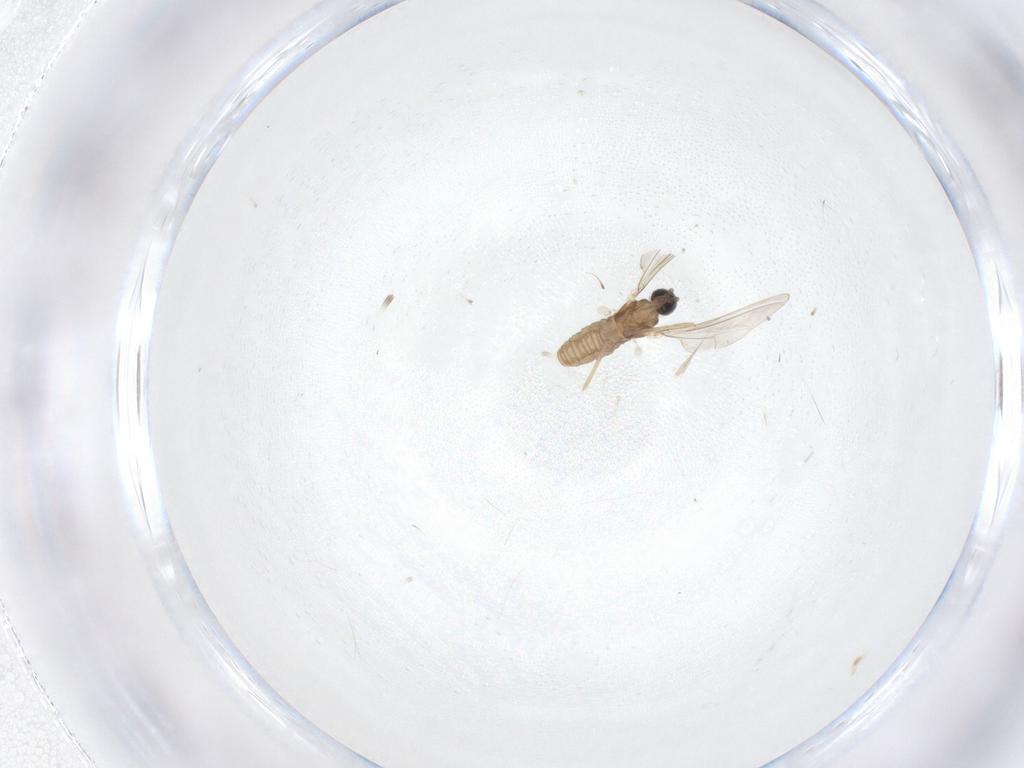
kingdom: Animalia
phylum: Arthropoda
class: Insecta
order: Diptera
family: Cecidomyiidae
